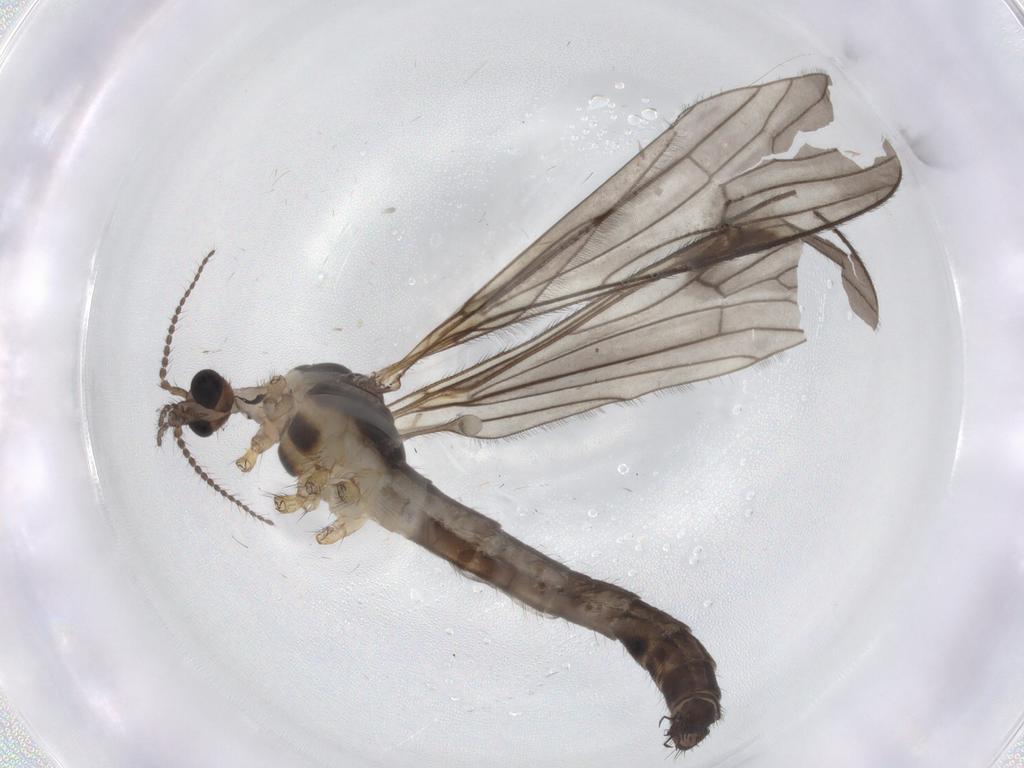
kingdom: Animalia
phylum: Arthropoda
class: Insecta
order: Diptera
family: Limoniidae
